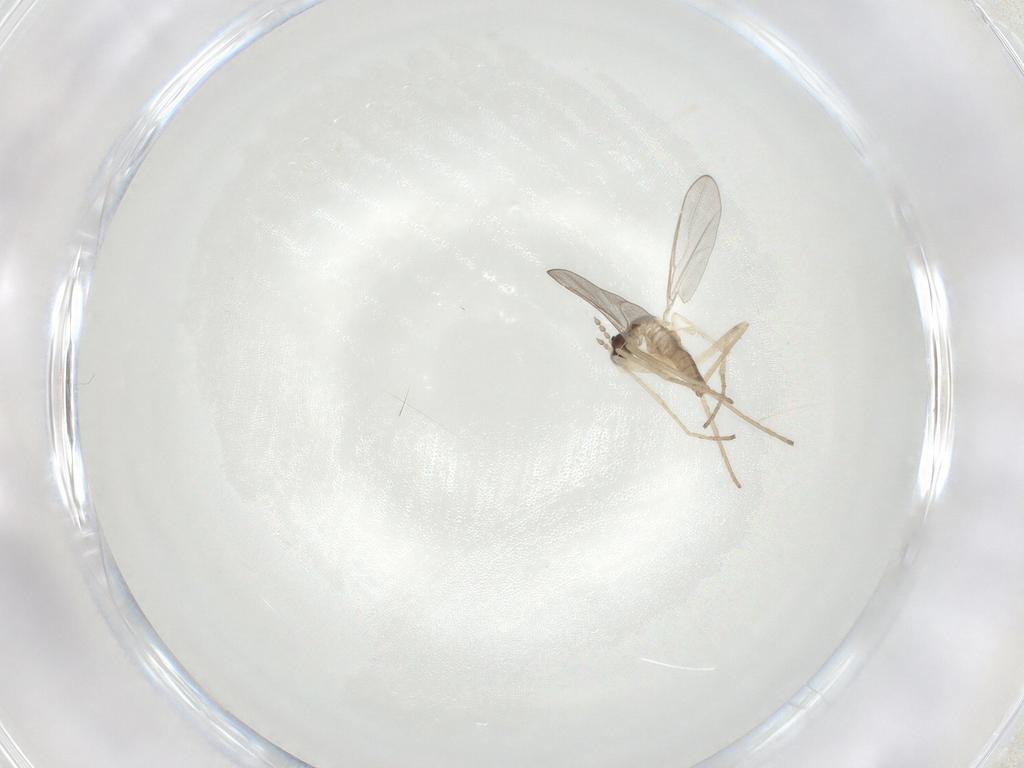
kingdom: Animalia
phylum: Arthropoda
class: Insecta
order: Diptera
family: Cecidomyiidae
